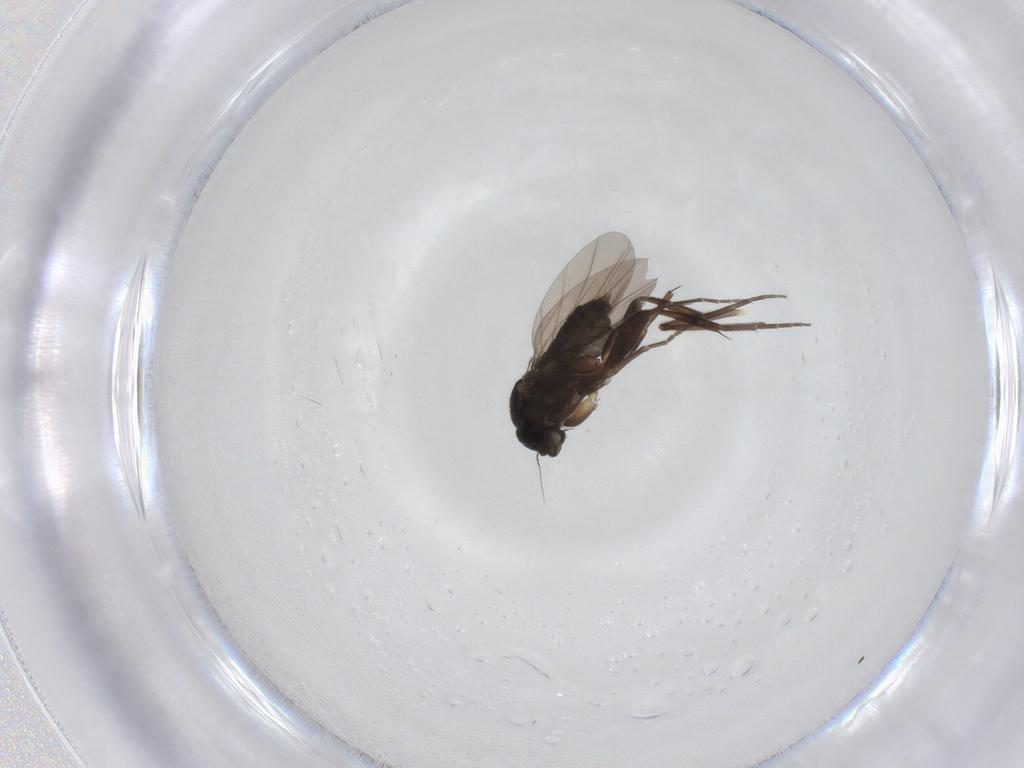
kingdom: Animalia
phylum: Arthropoda
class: Insecta
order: Diptera
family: Chironomidae
